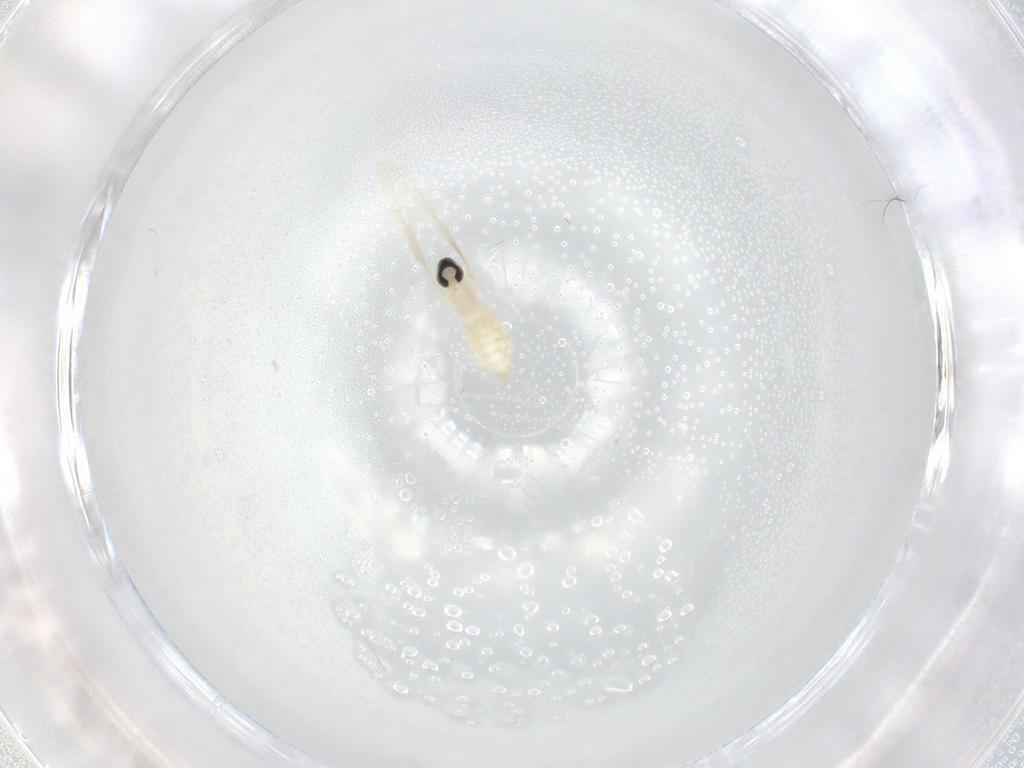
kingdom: Animalia
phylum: Arthropoda
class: Insecta
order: Diptera
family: Cecidomyiidae
